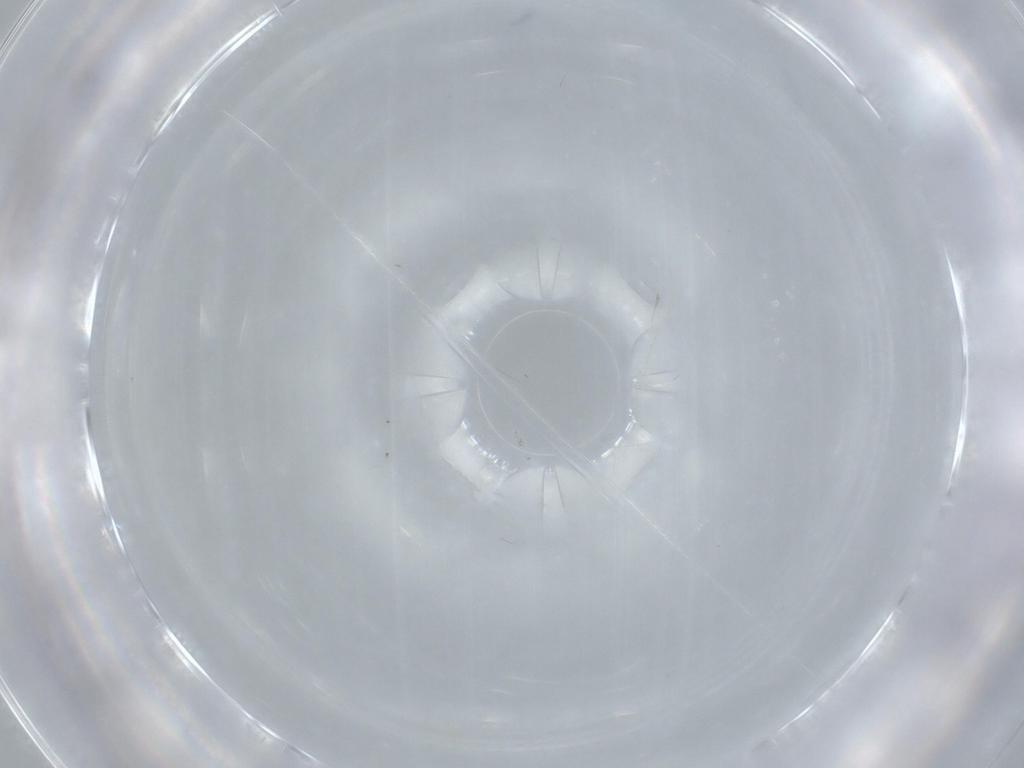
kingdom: Animalia
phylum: Arthropoda
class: Insecta
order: Diptera
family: Cecidomyiidae
